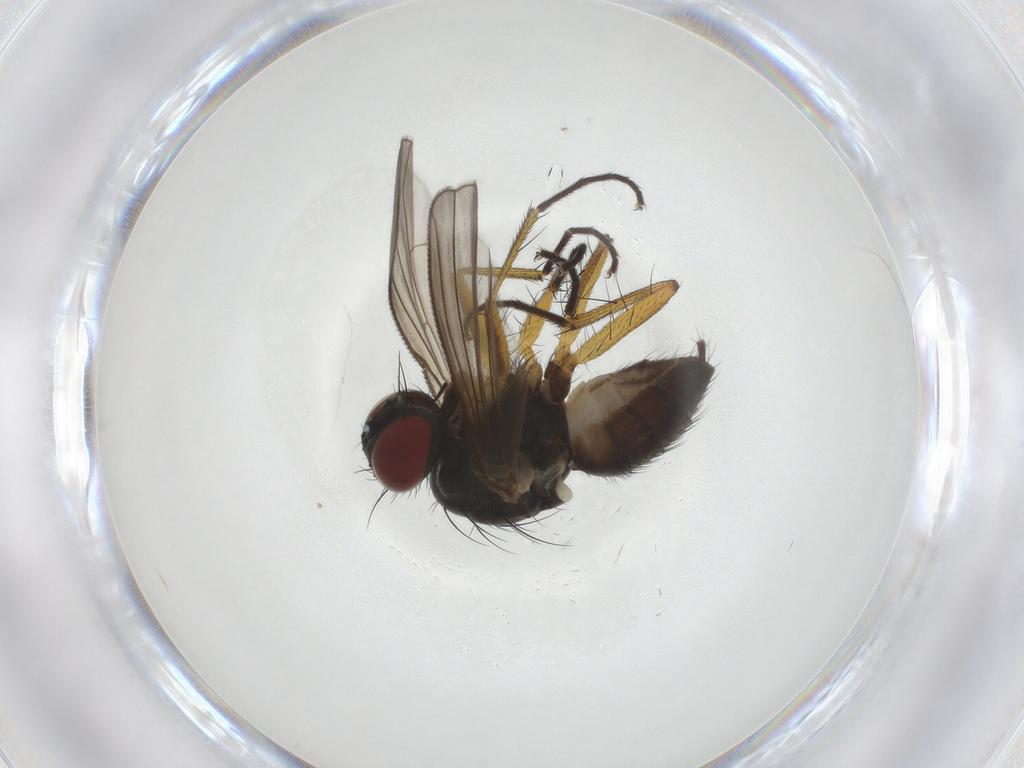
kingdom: Animalia
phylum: Arthropoda
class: Insecta
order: Diptera
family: Muscidae
